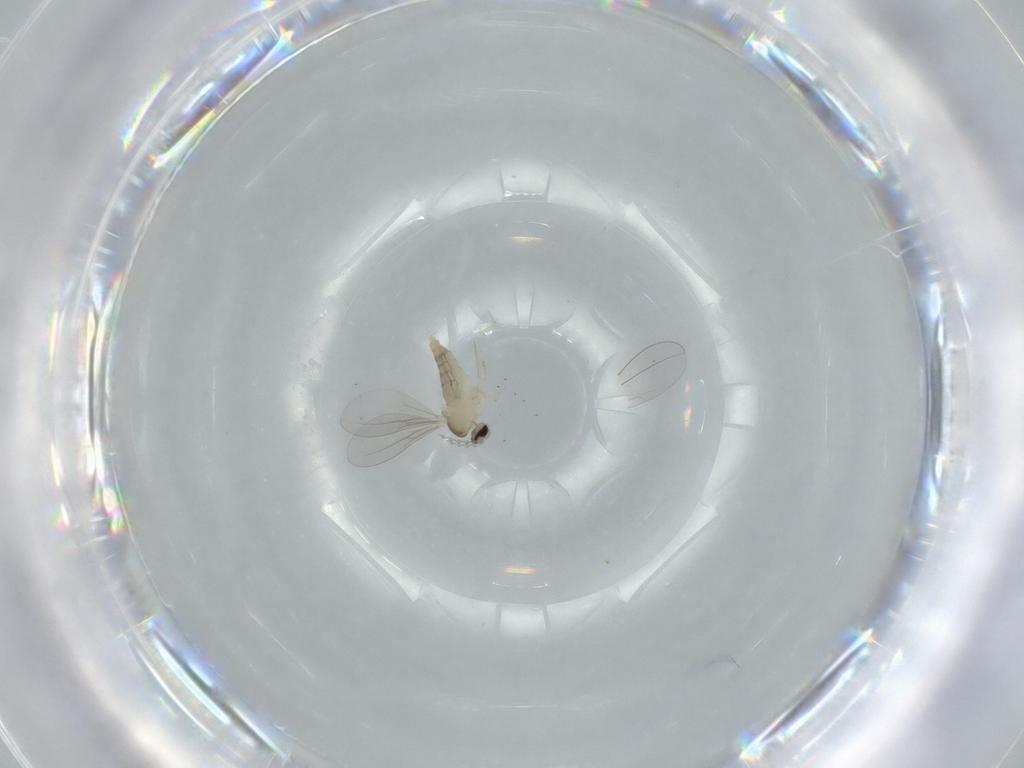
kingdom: Animalia
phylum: Arthropoda
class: Insecta
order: Diptera
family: Cecidomyiidae
